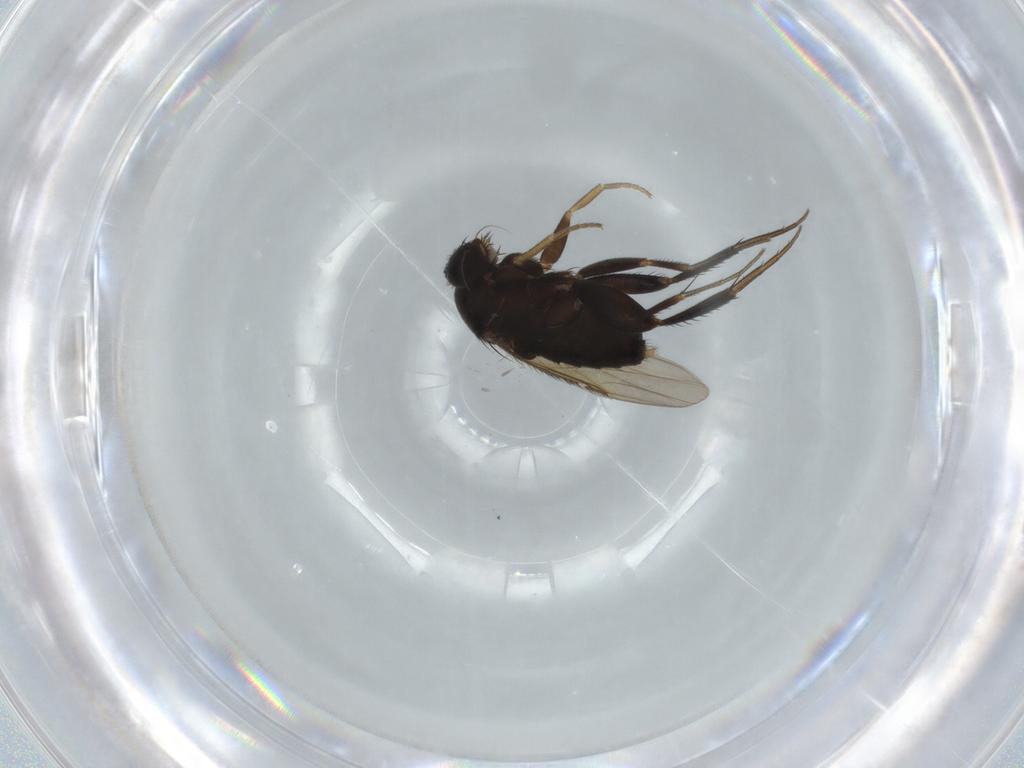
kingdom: Animalia
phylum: Arthropoda
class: Insecta
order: Diptera
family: Phoridae
